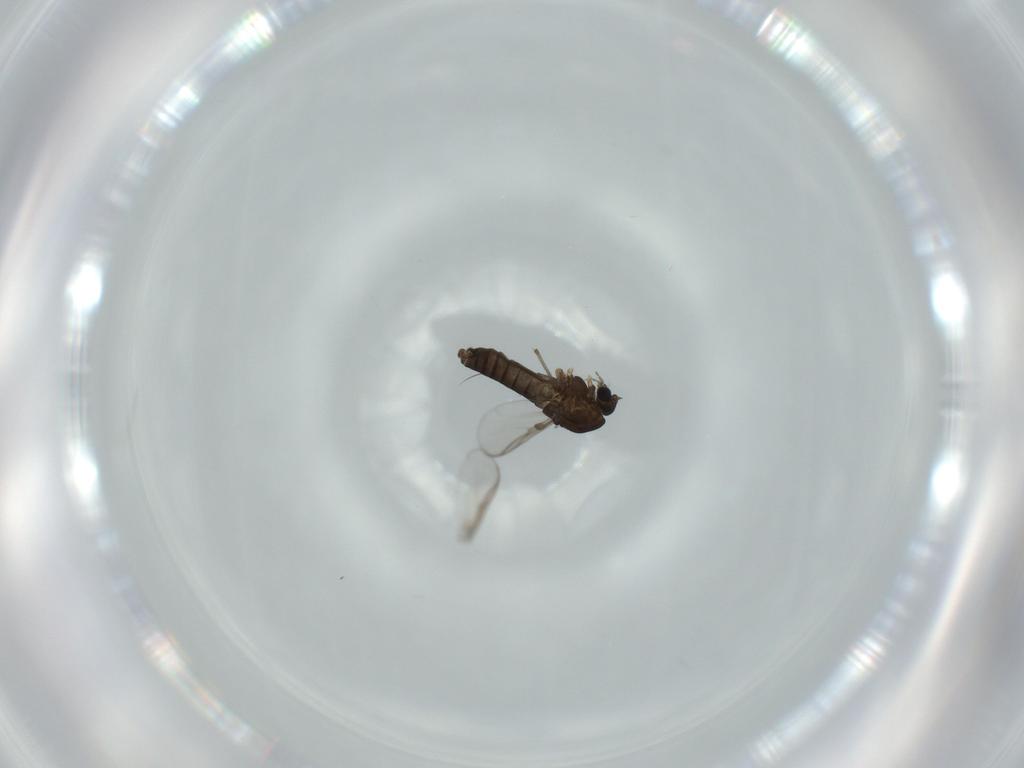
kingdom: Animalia
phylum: Arthropoda
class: Insecta
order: Diptera
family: Chironomidae
